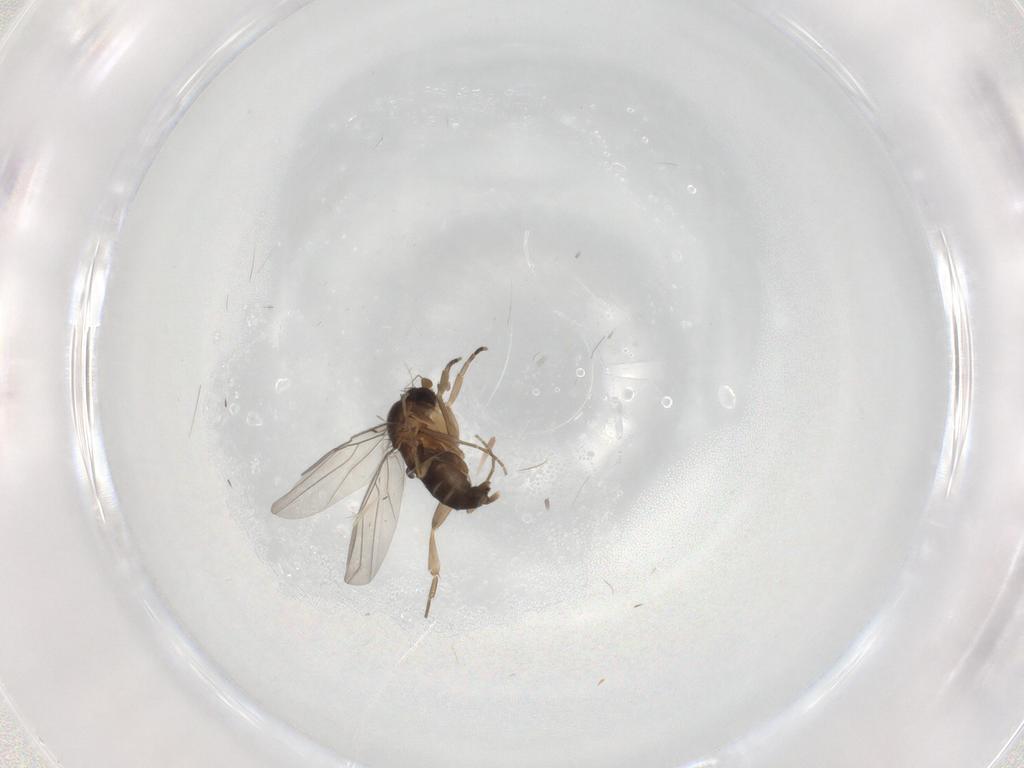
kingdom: Animalia
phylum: Arthropoda
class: Insecta
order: Diptera
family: Phoridae
